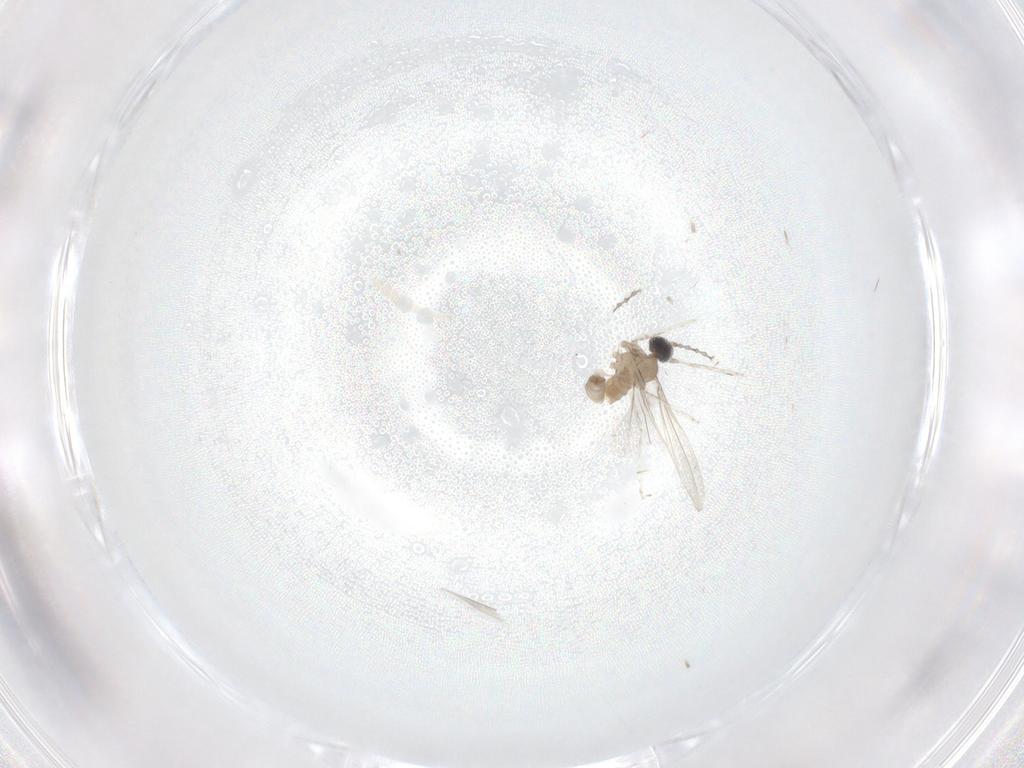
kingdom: Animalia
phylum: Arthropoda
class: Insecta
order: Diptera
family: Cecidomyiidae
